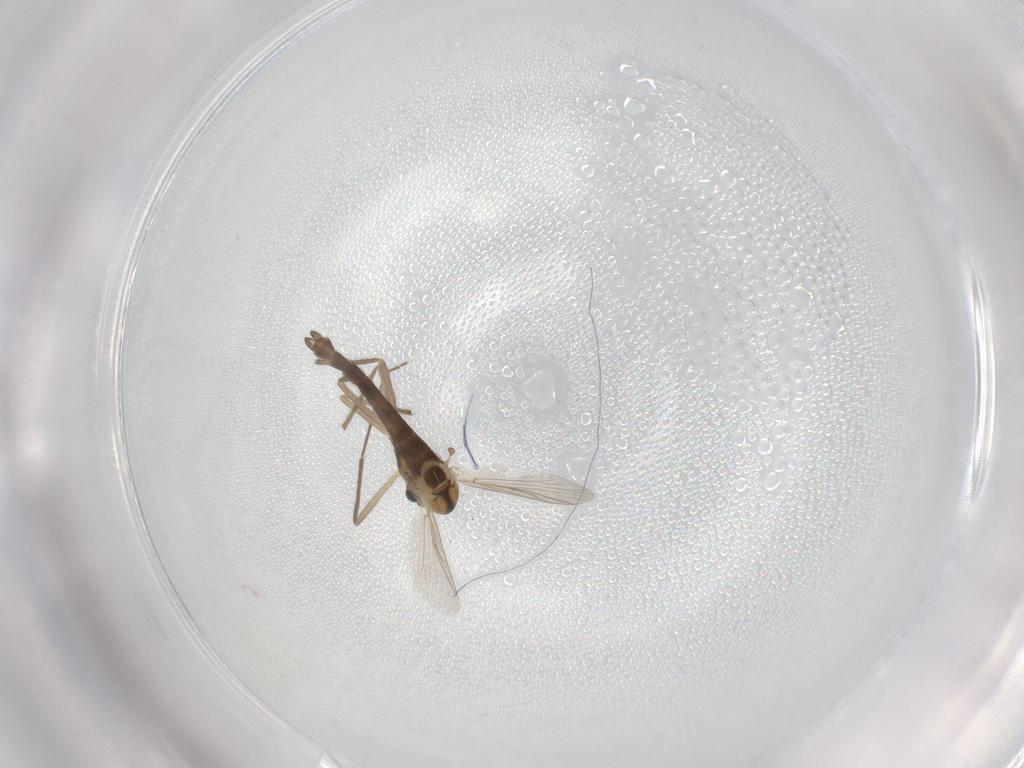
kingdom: Animalia
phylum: Arthropoda
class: Insecta
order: Diptera
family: Chironomidae
